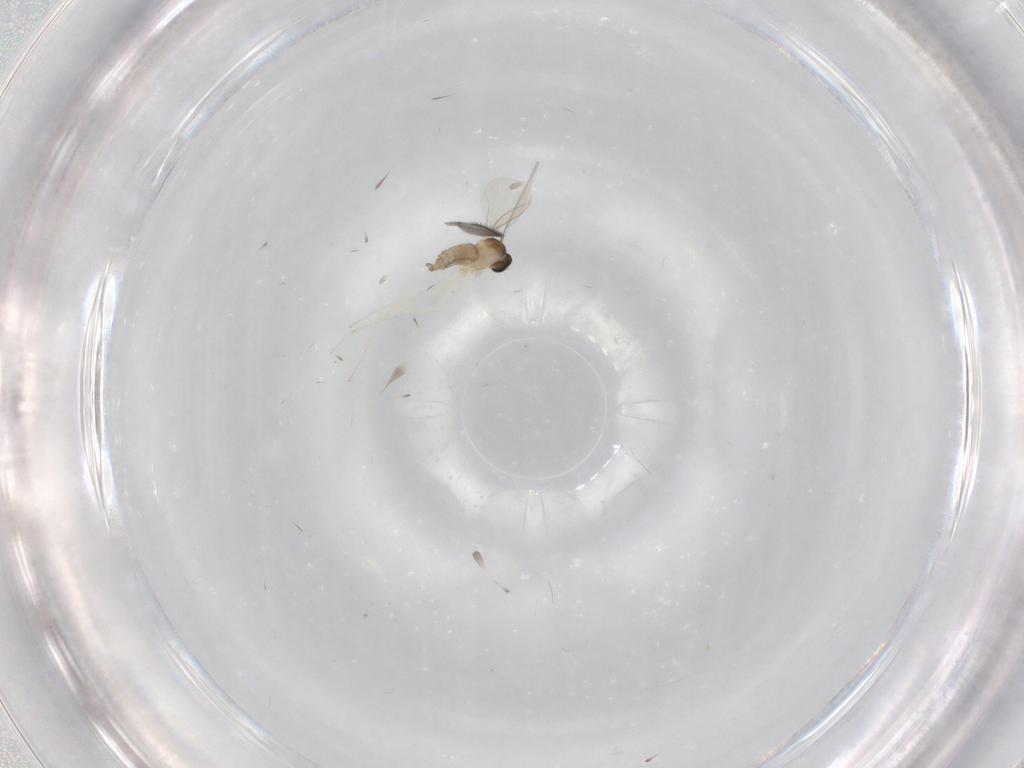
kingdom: Animalia
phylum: Arthropoda
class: Insecta
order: Diptera
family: Cecidomyiidae
